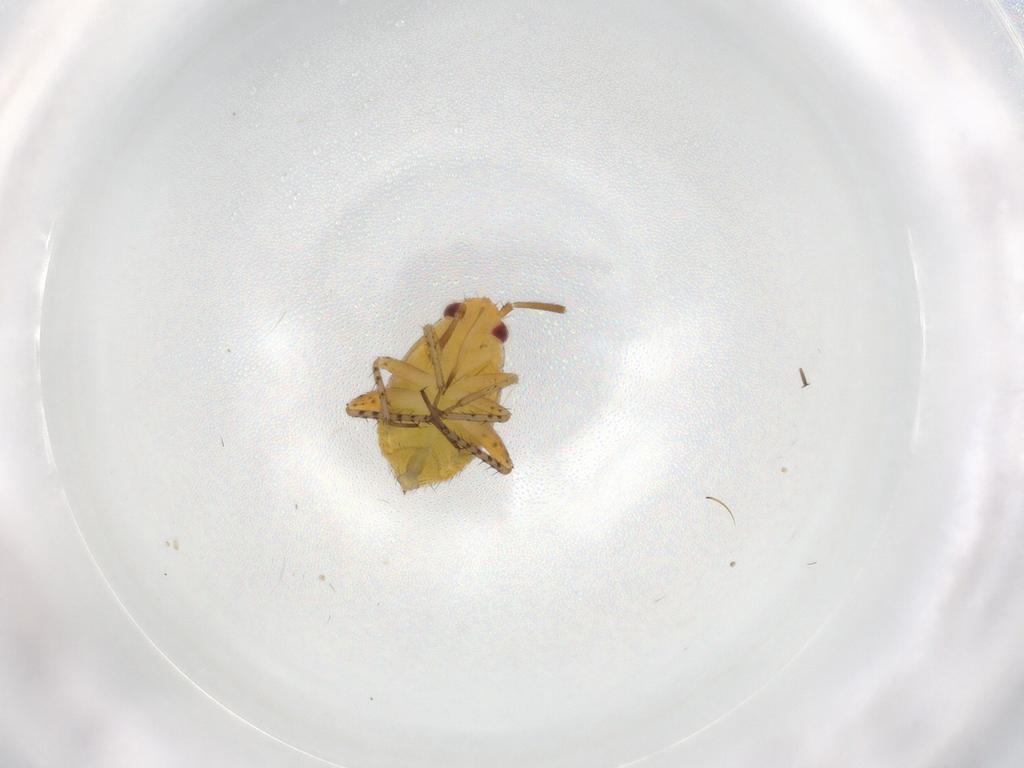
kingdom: Animalia
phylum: Arthropoda
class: Insecta
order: Hemiptera
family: Miridae
